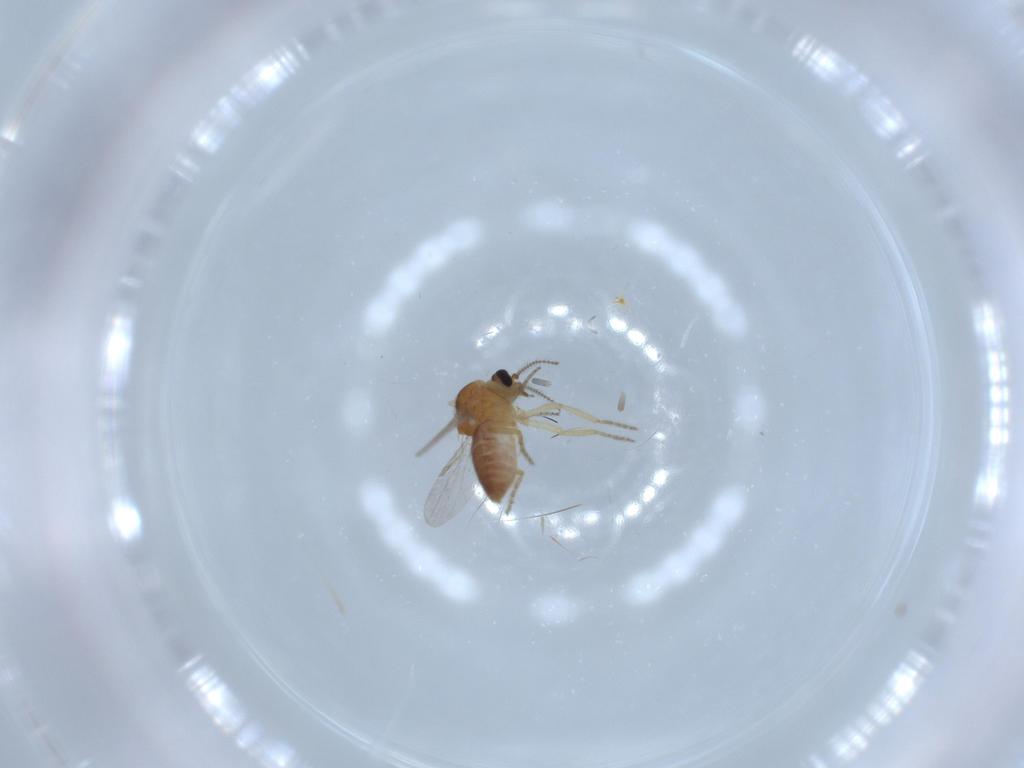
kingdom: Animalia
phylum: Arthropoda
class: Insecta
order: Diptera
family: Ceratopogonidae
